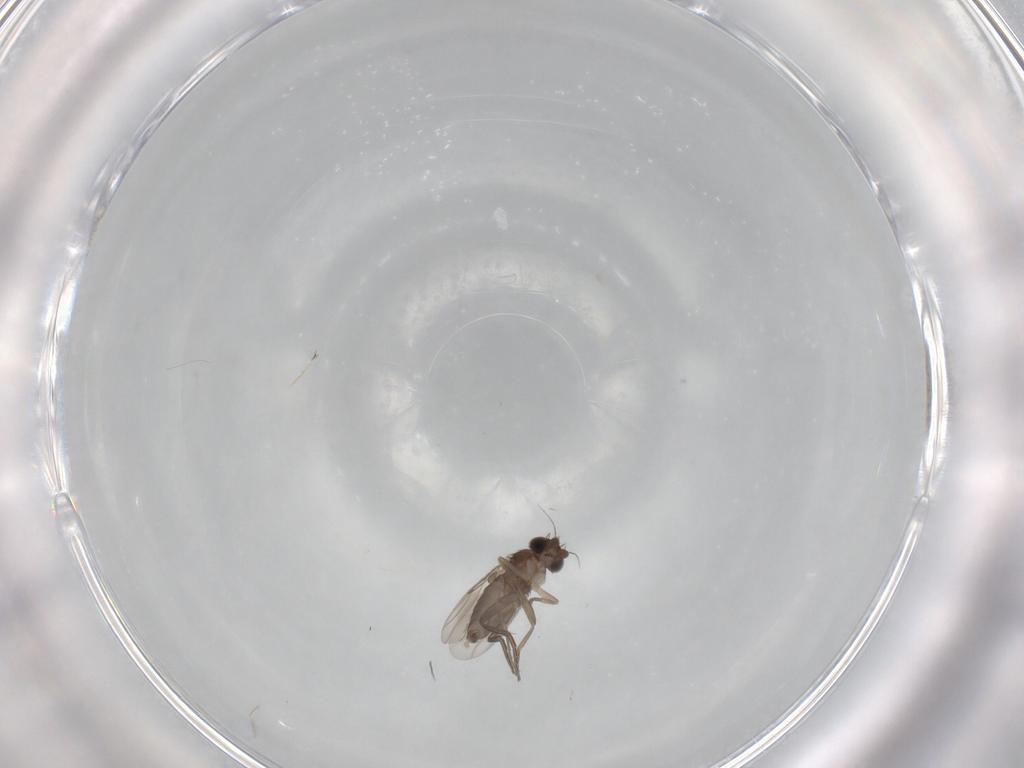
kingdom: Animalia
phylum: Arthropoda
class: Insecta
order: Diptera
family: Phoridae
